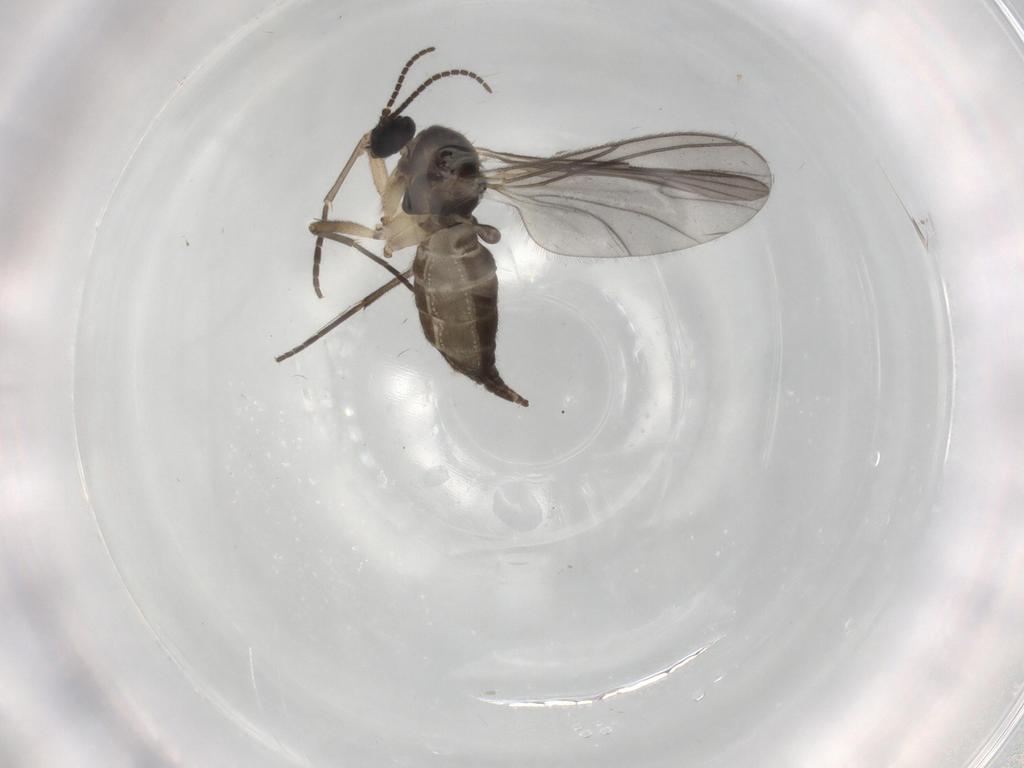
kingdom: Animalia
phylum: Arthropoda
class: Insecta
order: Diptera
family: Sciaridae
